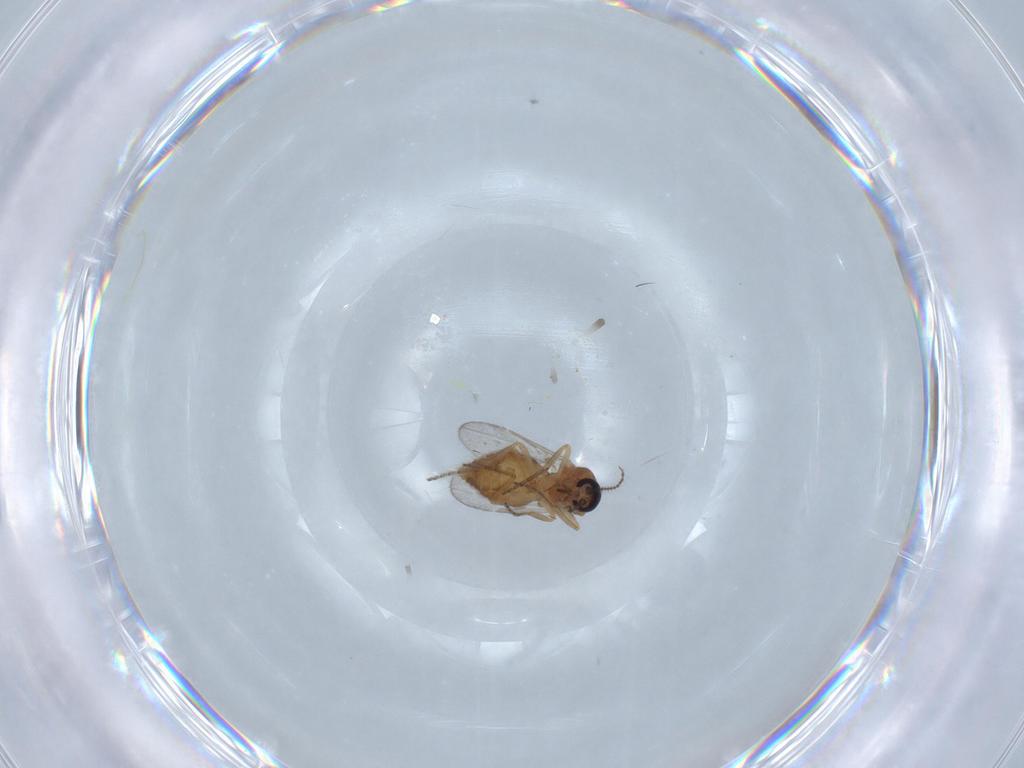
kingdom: Animalia
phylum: Arthropoda
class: Insecta
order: Diptera
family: Ceratopogonidae
